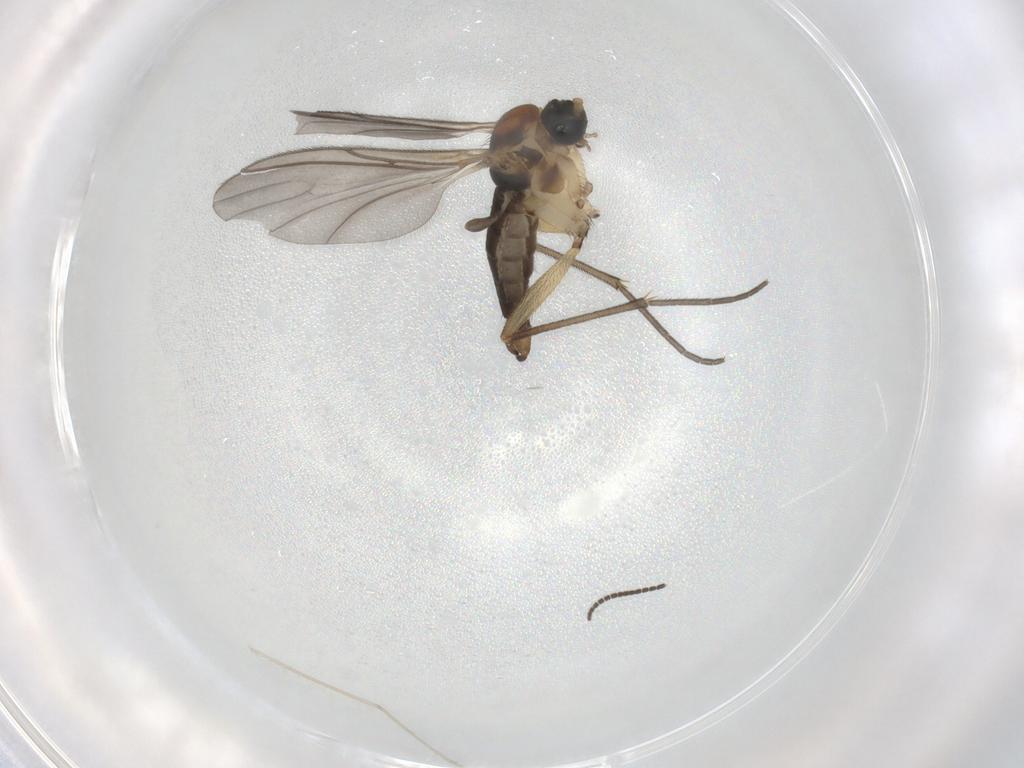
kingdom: Animalia
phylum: Arthropoda
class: Insecta
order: Diptera
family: Sciaridae
